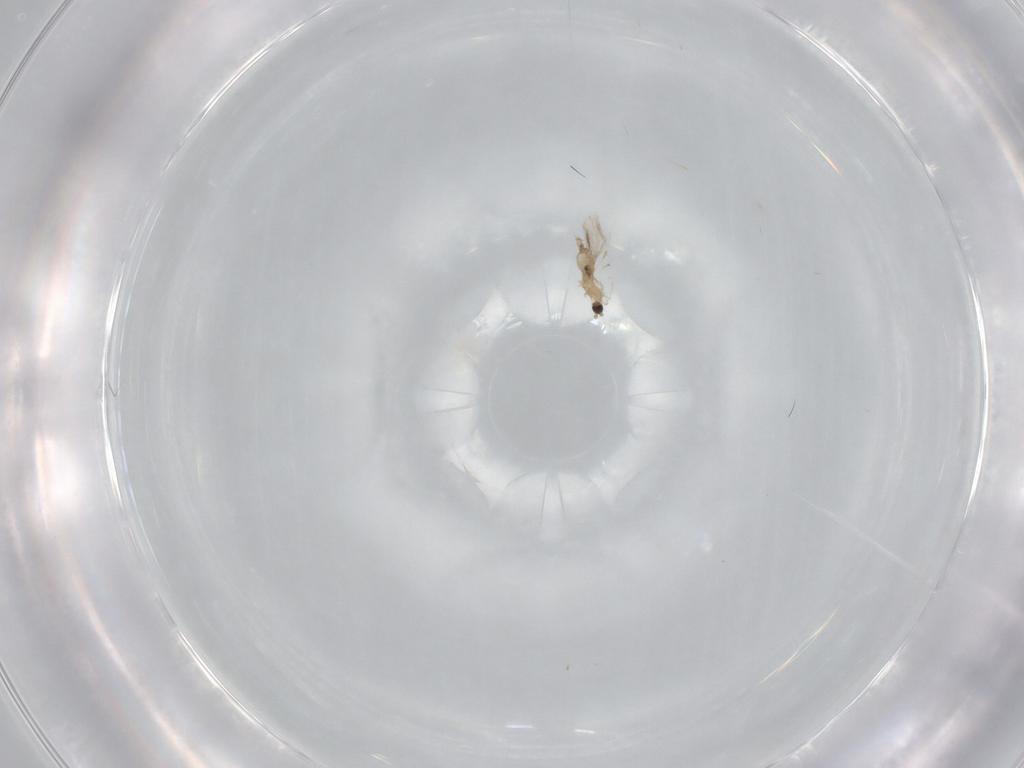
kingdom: Animalia
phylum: Arthropoda
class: Insecta
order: Diptera
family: Cecidomyiidae
